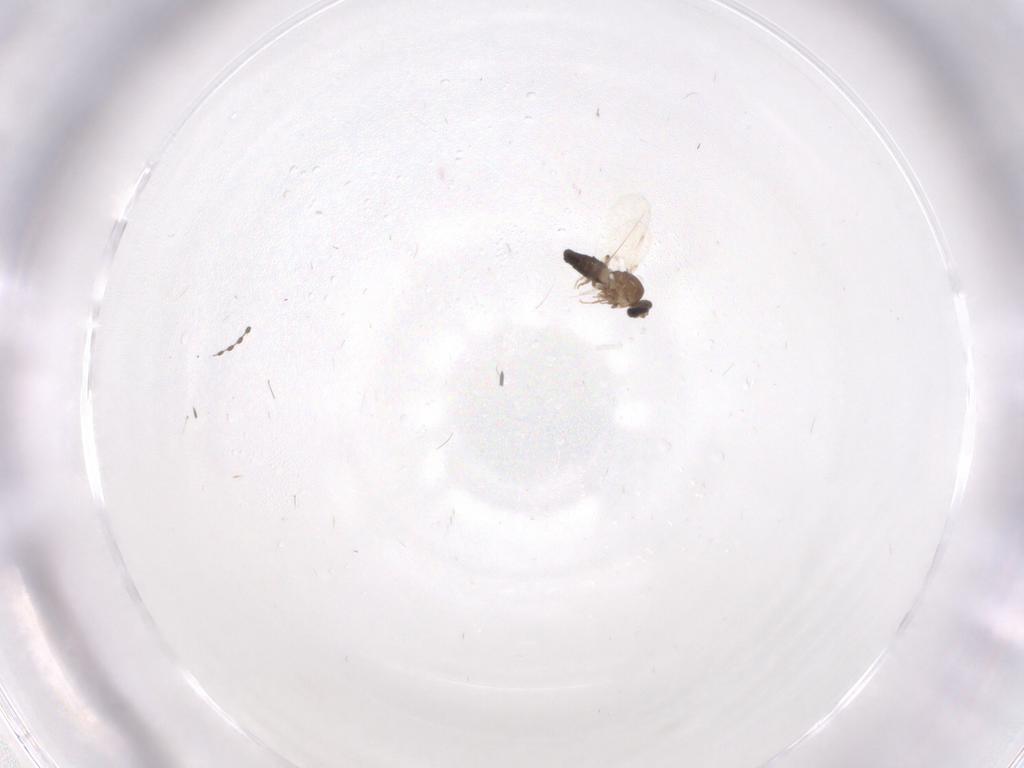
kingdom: Animalia
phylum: Arthropoda
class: Insecta
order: Diptera
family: Ceratopogonidae
